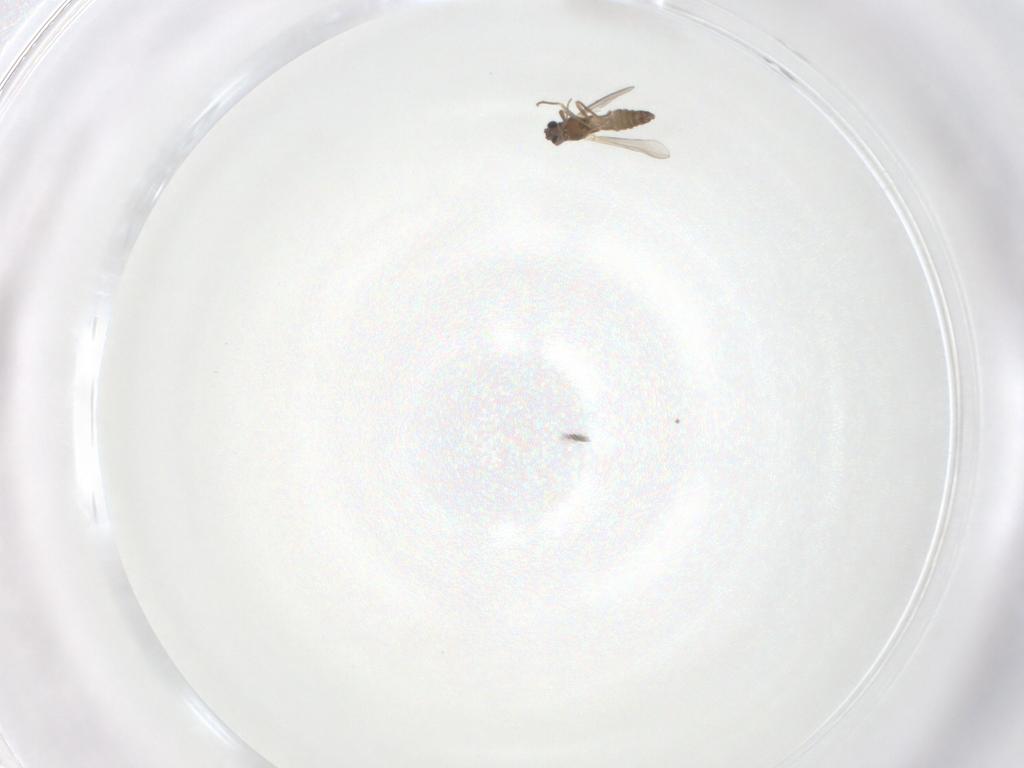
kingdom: Animalia
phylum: Arthropoda
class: Insecta
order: Diptera
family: Chironomidae
